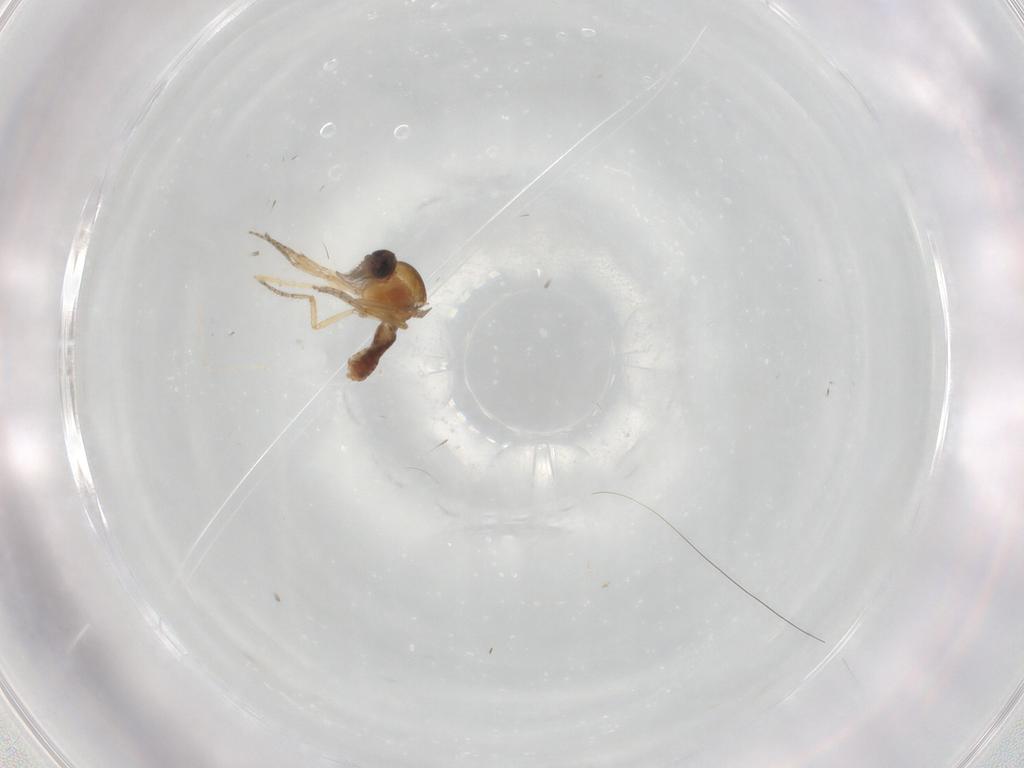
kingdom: Animalia
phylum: Arthropoda
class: Insecta
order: Diptera
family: Ceratopogonidae
